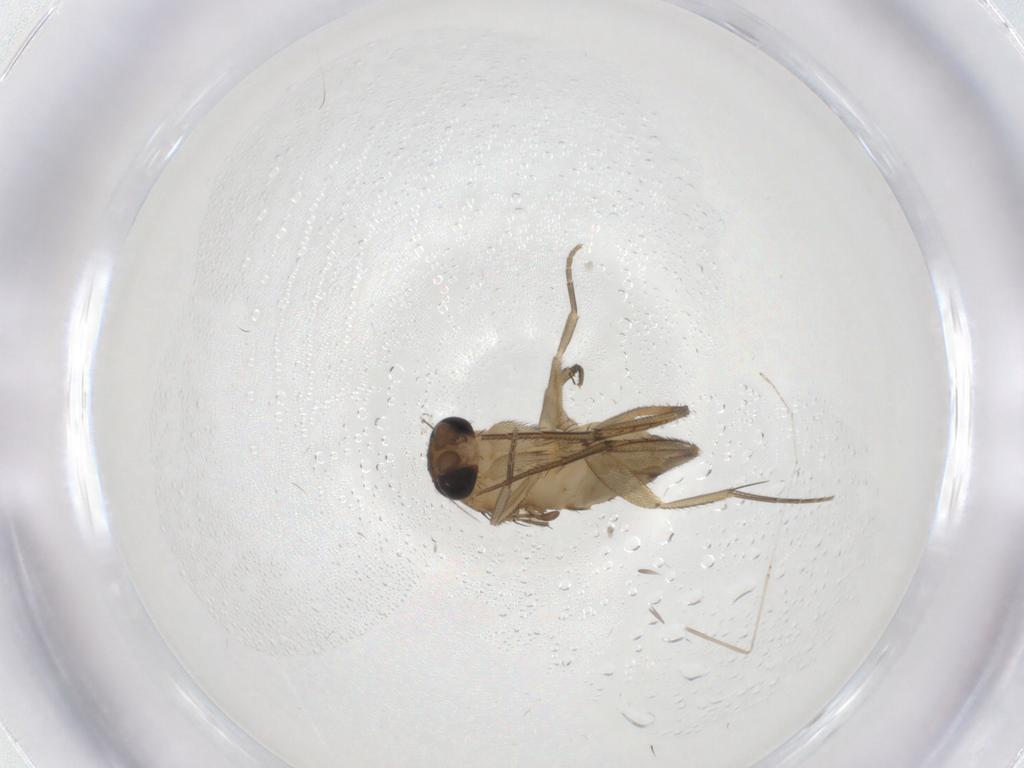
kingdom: Animalia
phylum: Arthropoda
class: Insecta
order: Diptera
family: Phoridae
